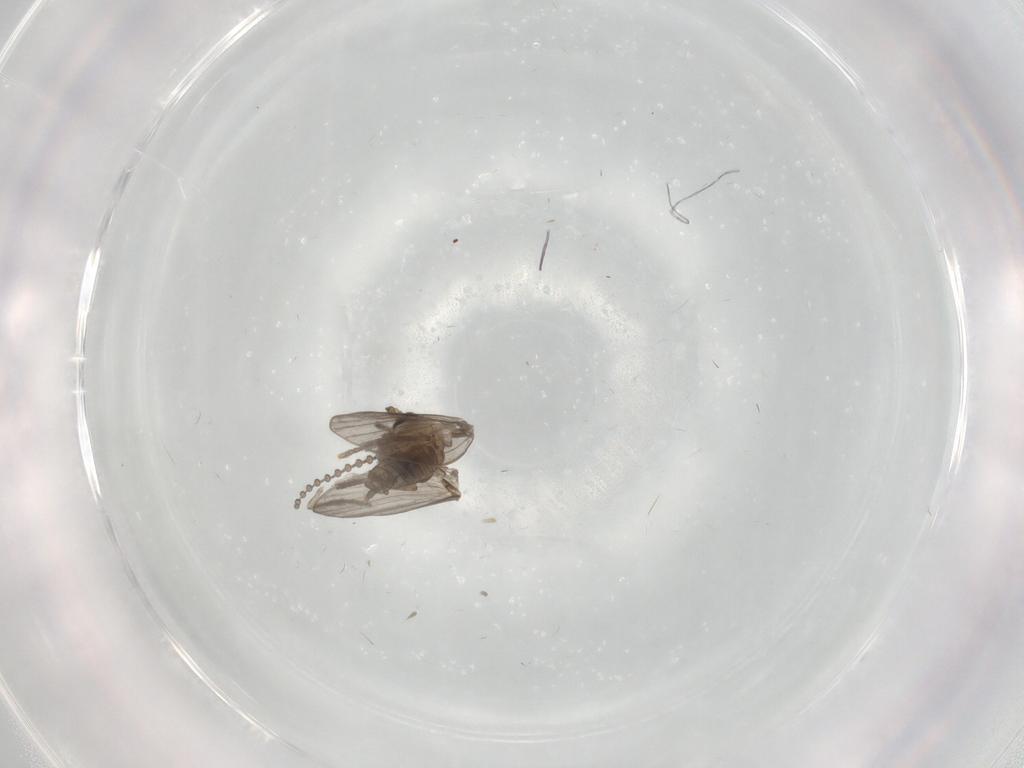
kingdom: Animalia
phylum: Arthropoda
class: Insecta
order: Diptera
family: Psychodidae
